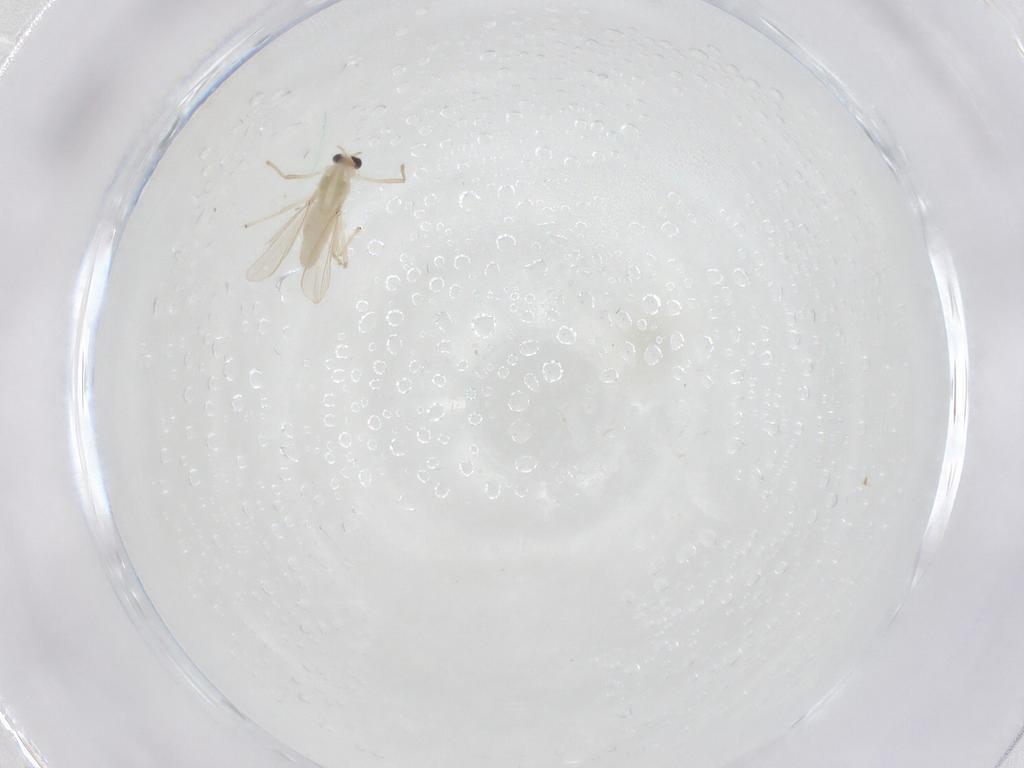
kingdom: Animalia
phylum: Arthropoda
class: Insecta
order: Diptera
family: Chironomidae
